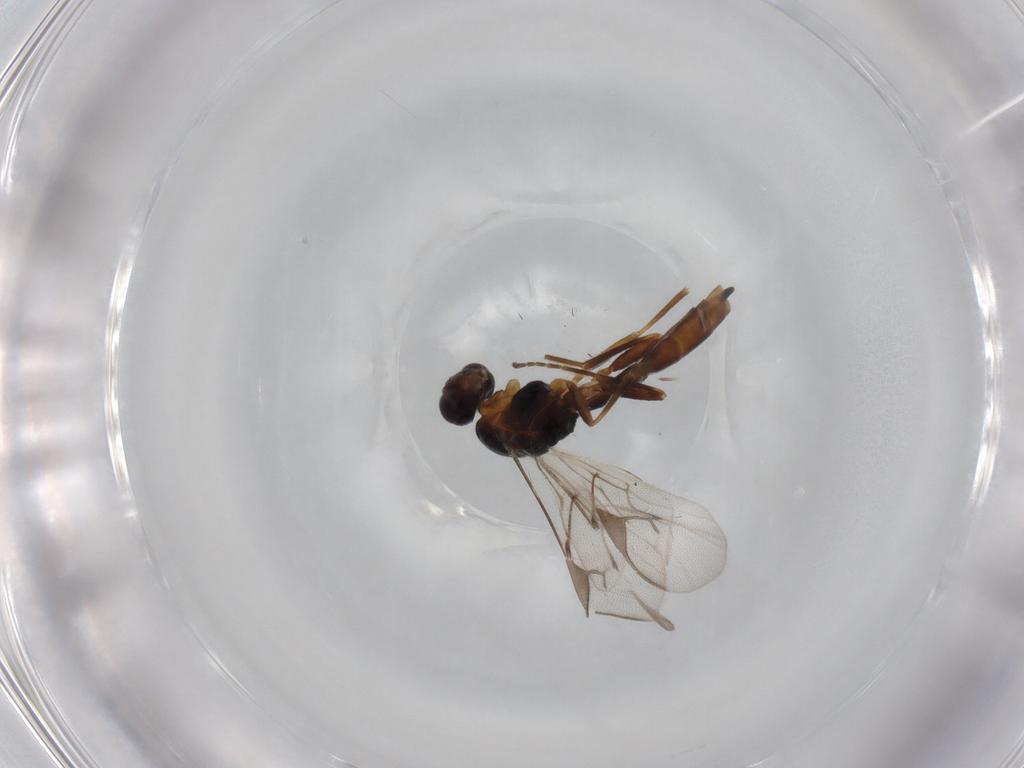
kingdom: Animalia
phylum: Arthropoda
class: Insecta
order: Hymenoptera
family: Braconidae
